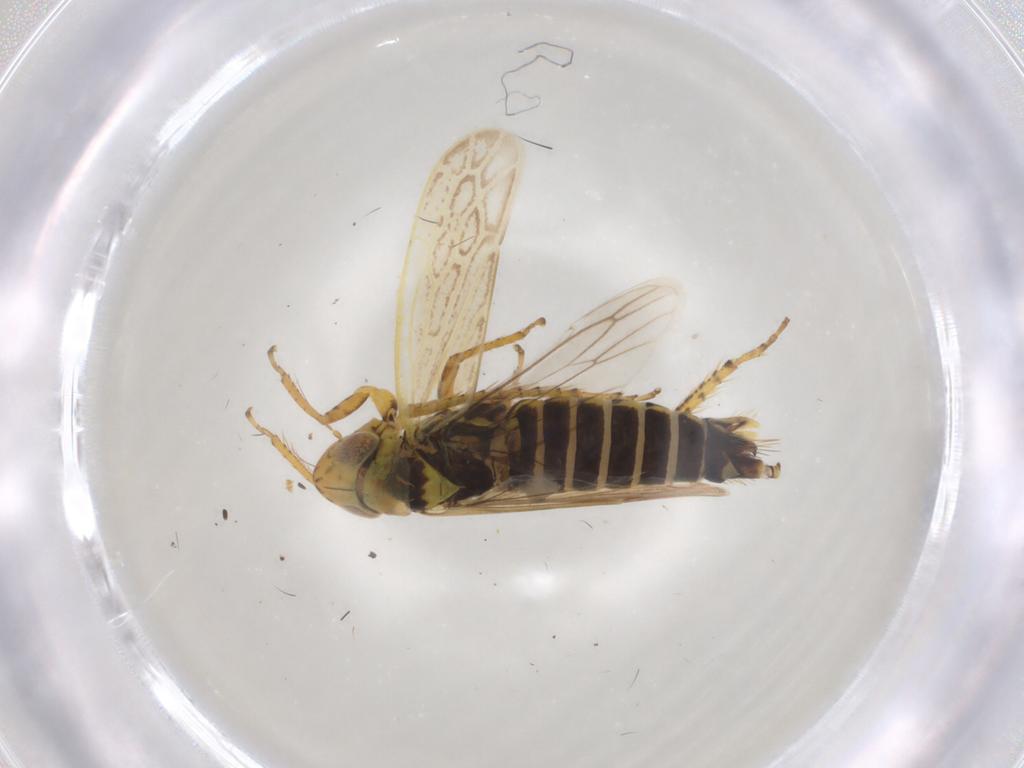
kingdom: Animalia
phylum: Arthropoda
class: Insecta
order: Hemiptera
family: Cicadellidae
